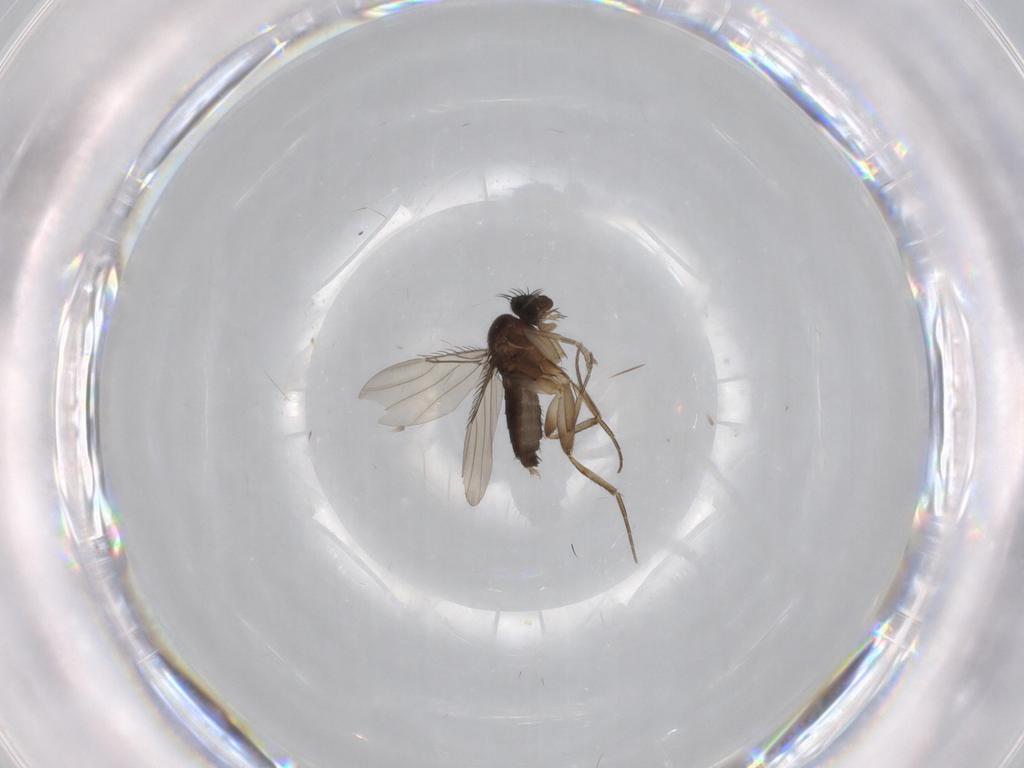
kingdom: Animalia
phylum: Arthropoda
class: Insecta
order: Diptera
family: Phoridae
